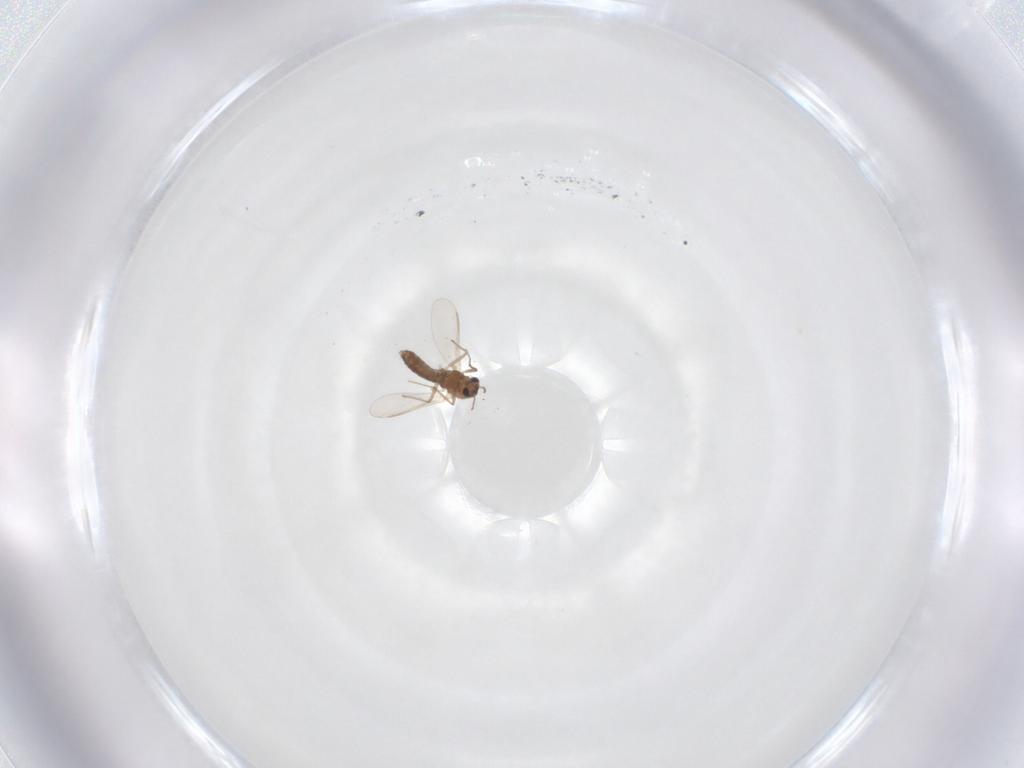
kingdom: Animalia
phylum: Arthropoda
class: Insecta
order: Diptera
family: Chironomidae
